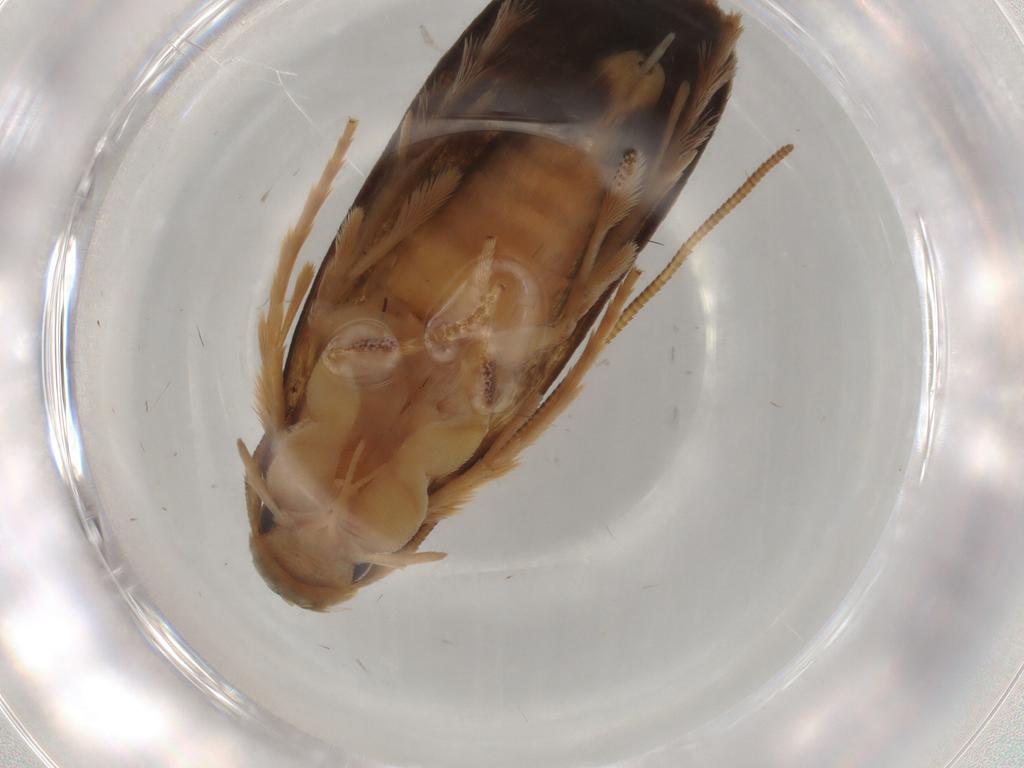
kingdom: Animalia
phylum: Arthropoda
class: Insecta
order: Lepidoptera
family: Tineidae
